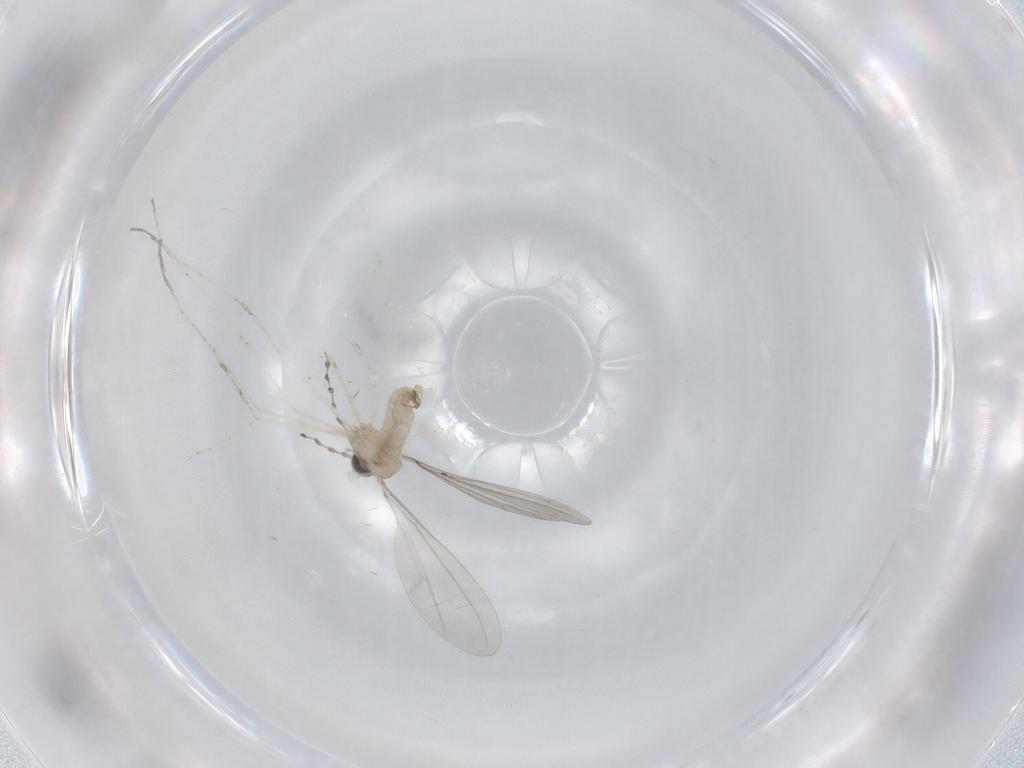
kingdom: Animalia
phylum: Arthropoda
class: Insecta
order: Diptera
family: Cecidomyiidae
